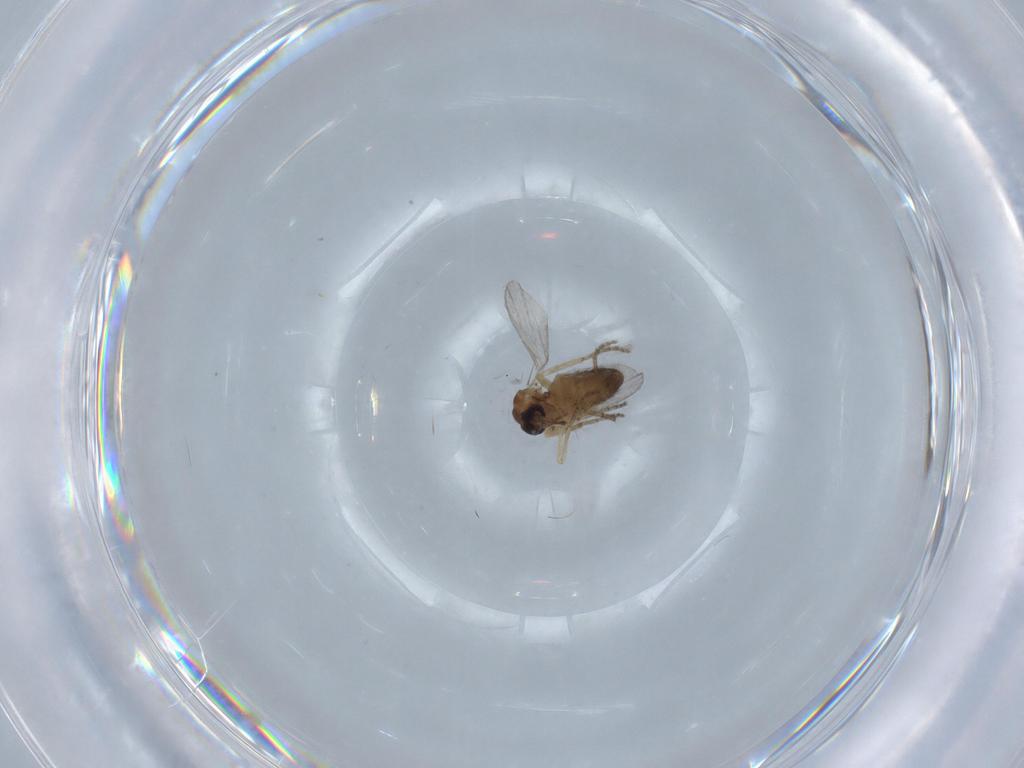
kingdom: Animalia
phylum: Arthropoda
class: Insecta
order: Diptera
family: Ceratopogonidae
